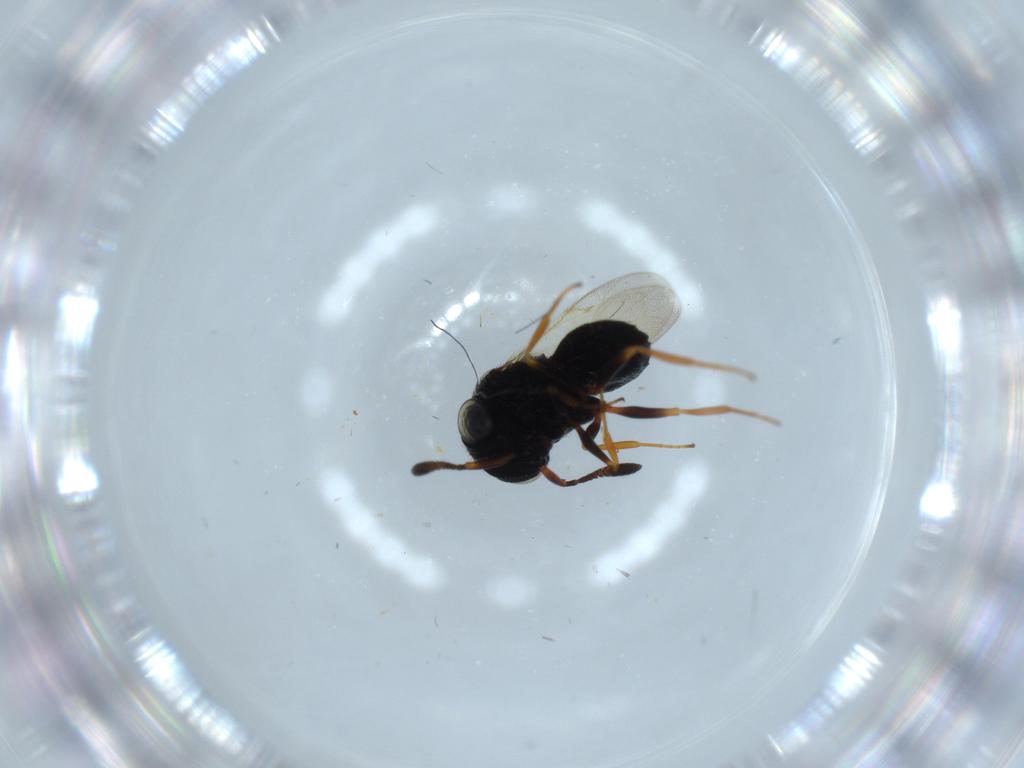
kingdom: Animalia
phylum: Arthropoda
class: Insecta
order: Hymenoptera
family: Scelionidae
